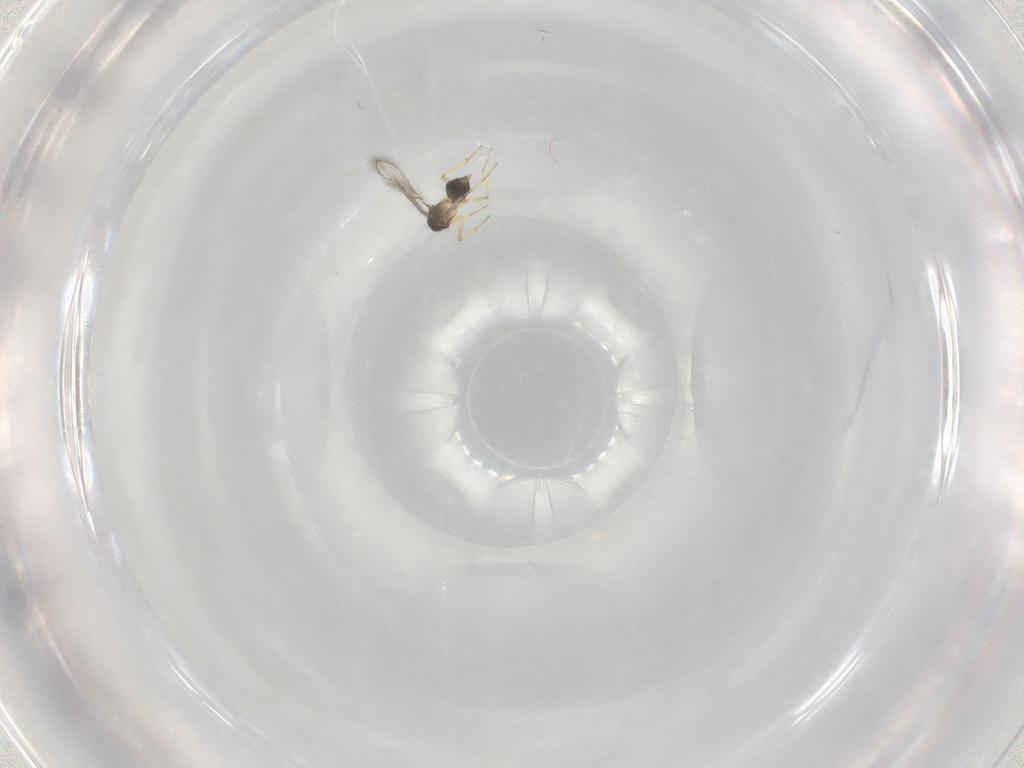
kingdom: Animalia
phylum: Arthropoda
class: Insecta
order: Hymenoptera
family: Eulophidae
